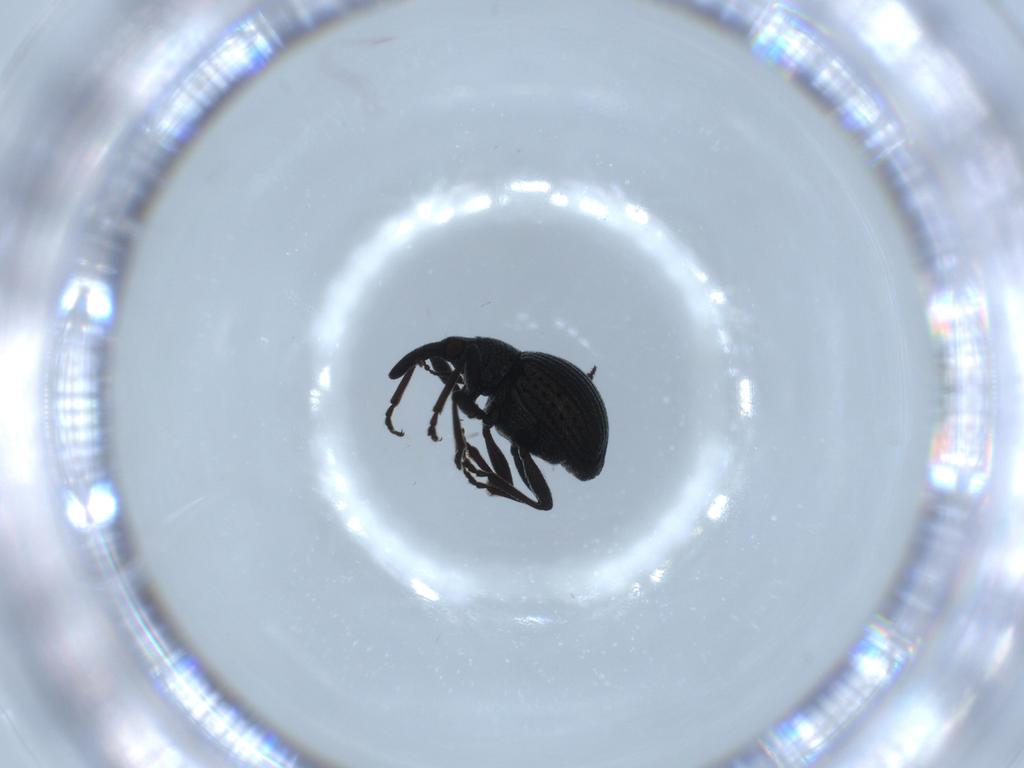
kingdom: Animalia
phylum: Arthropoda
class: Insecta
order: Coleoptera
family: Brentidae
